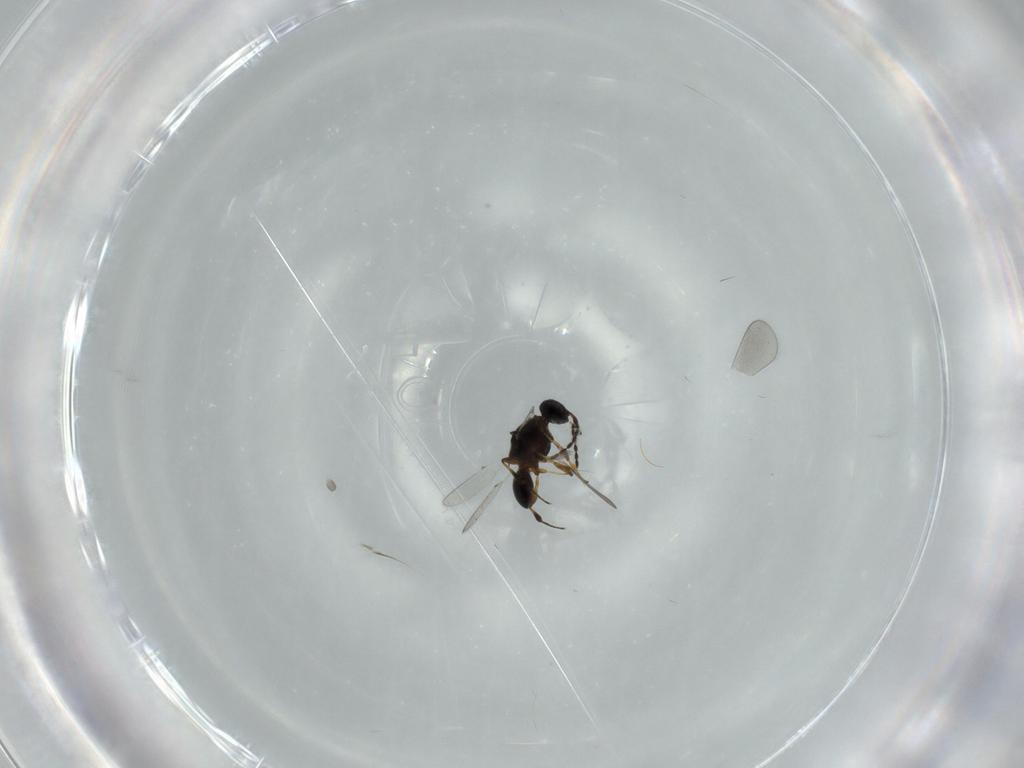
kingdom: Animalia
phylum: Arthropoda
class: Insecta
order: Hymenoptera
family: Platygastridae
